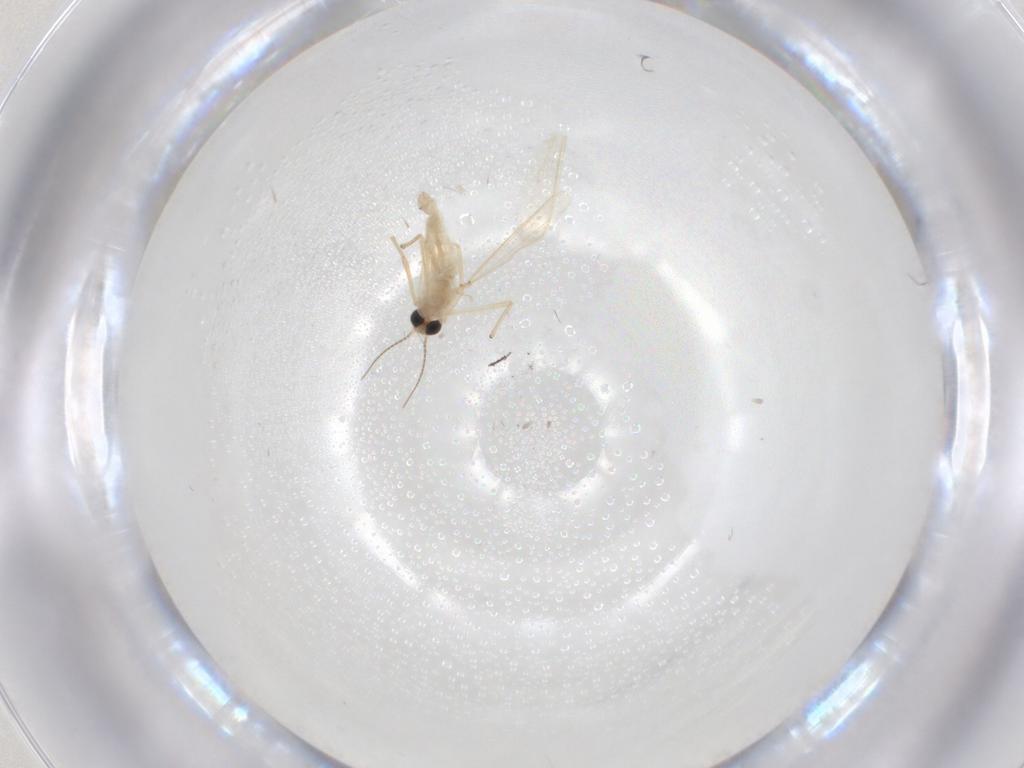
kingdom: Animalia
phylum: Arthropoda
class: Insecta
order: Diptera
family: Chironomidae
